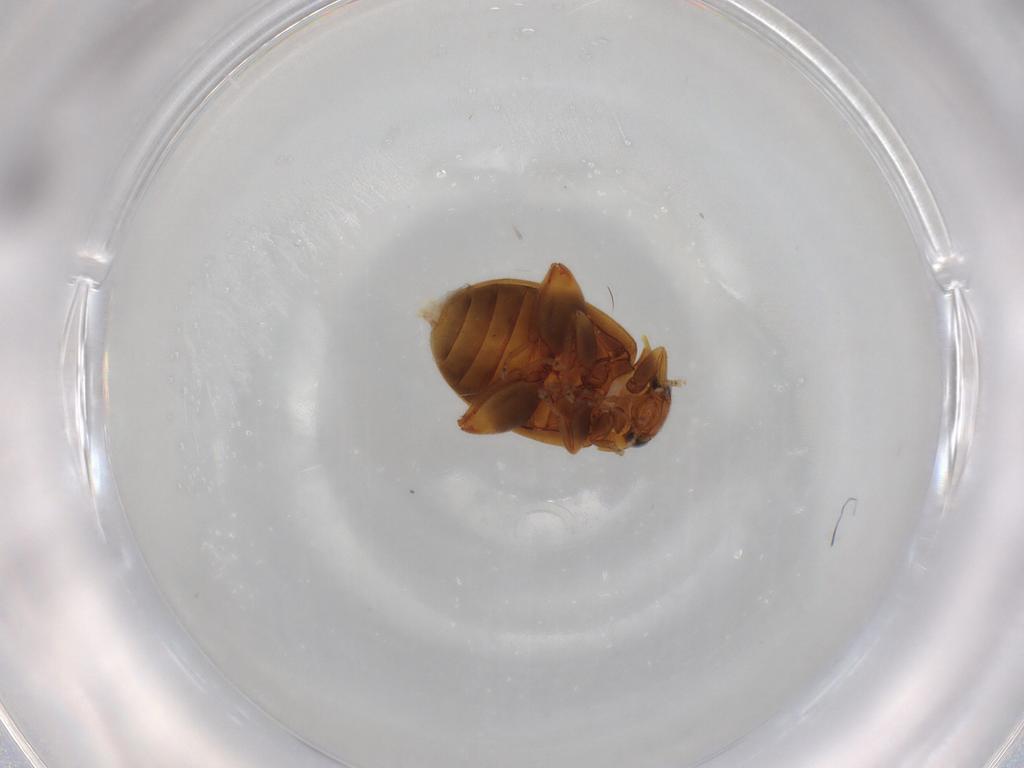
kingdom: Animalia
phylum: Arthropoda
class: Insecta
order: Coleoptera
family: Scirtidae
